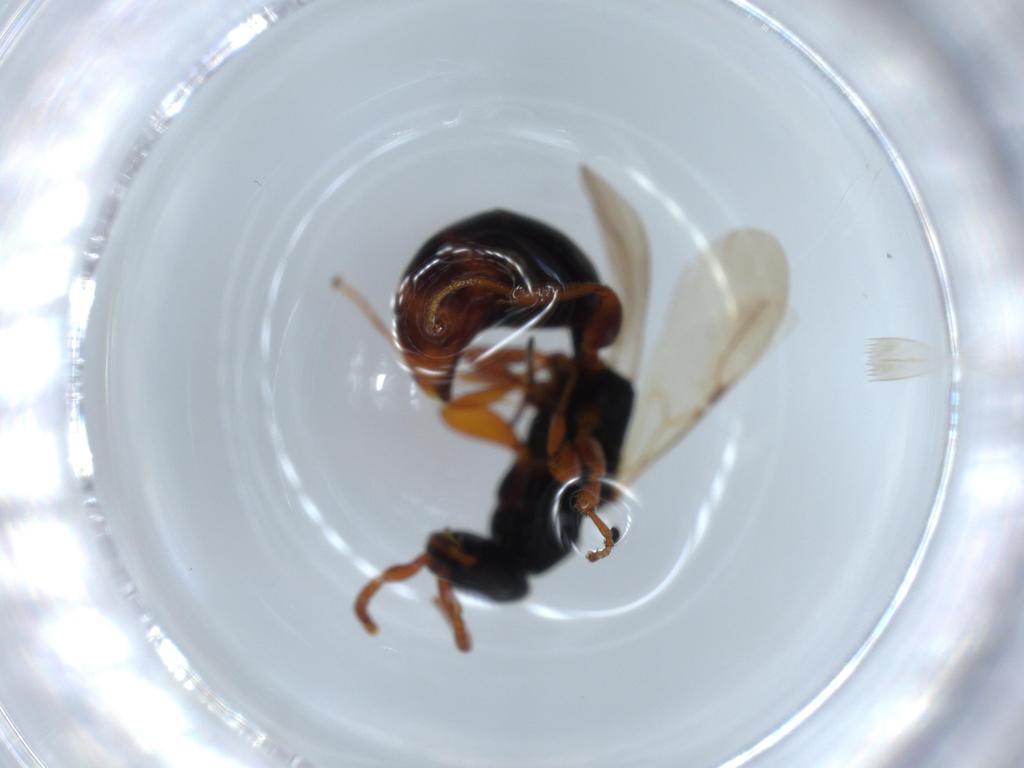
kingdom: Animalia
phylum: Arthropoda
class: Insecta
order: Hymenoptera
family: Bethylidae
